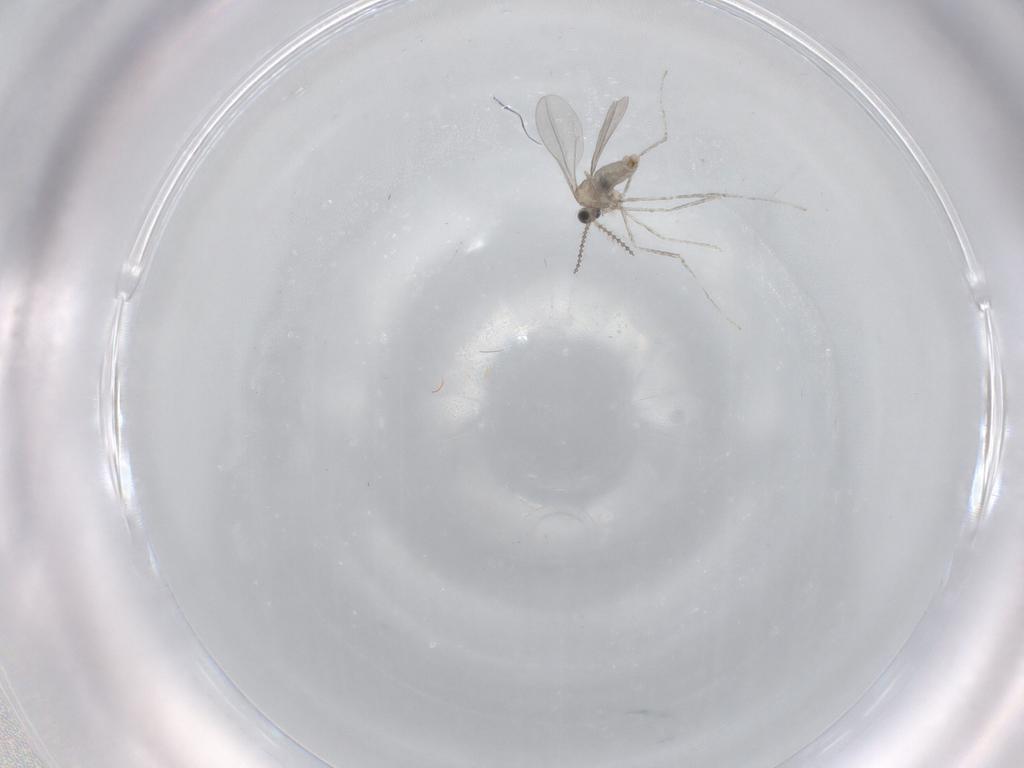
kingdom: Animalia
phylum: Arthropoda
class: Insecta
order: Diptera
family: Cecidomyiidae
